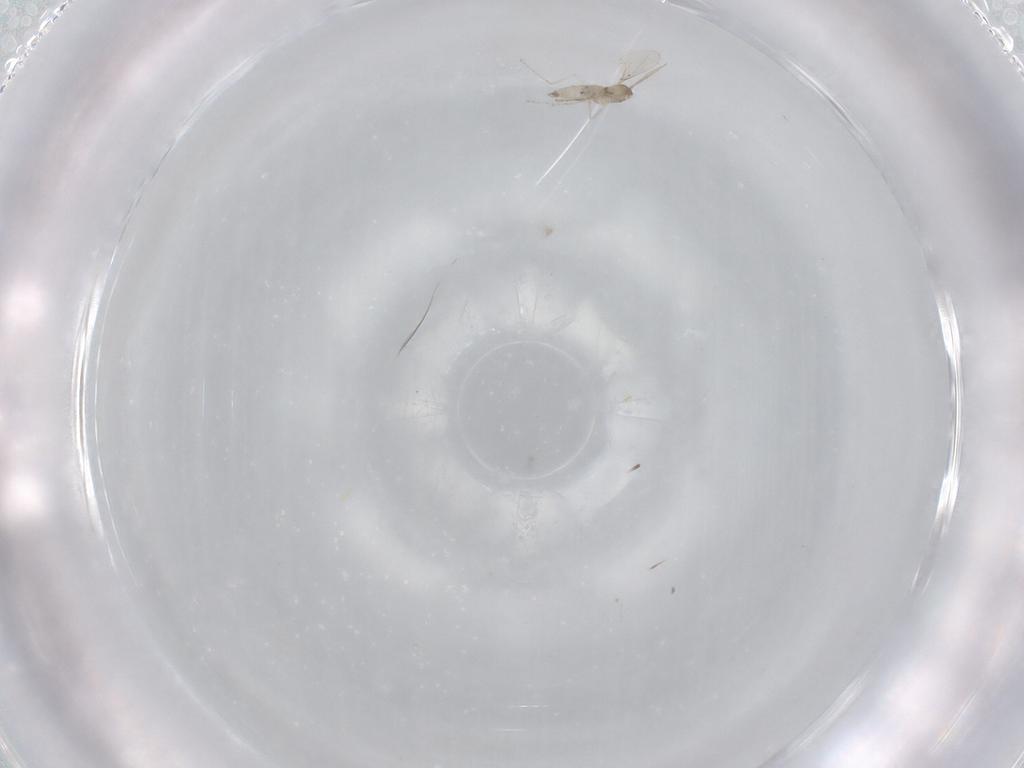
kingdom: Animalia
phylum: Arthropoda
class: Insecta
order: Diptera
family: Cecidomyiidae
